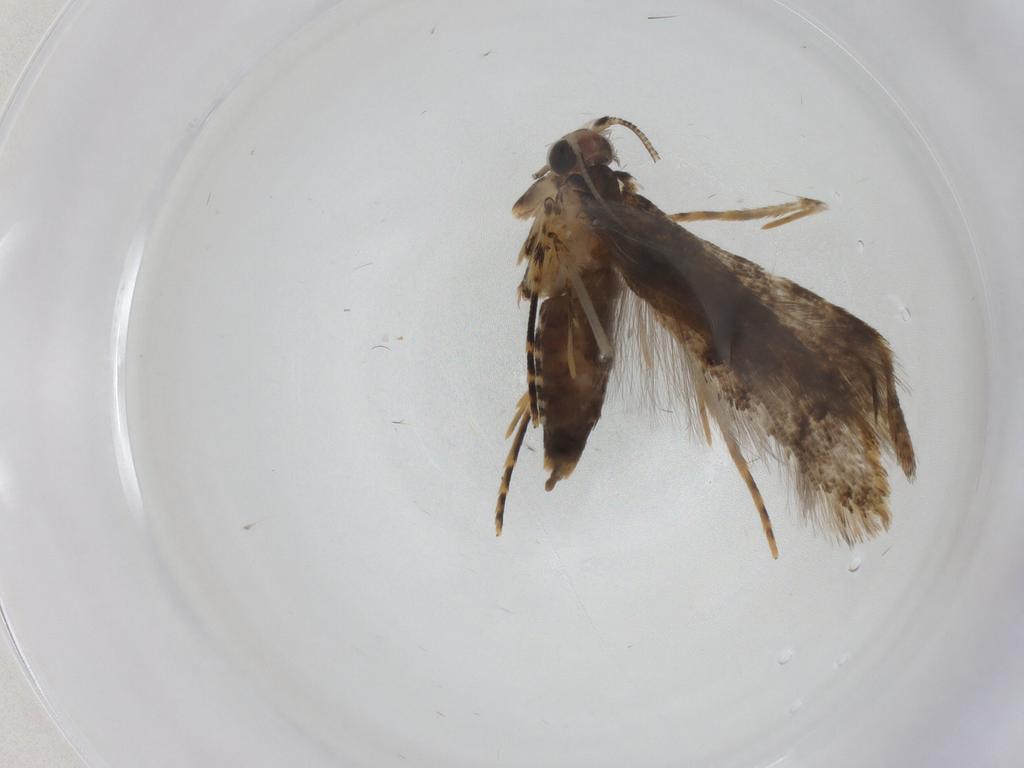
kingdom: Animalia
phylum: Arthropoda
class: Insecta
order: Lepidoptera
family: Tineidae
